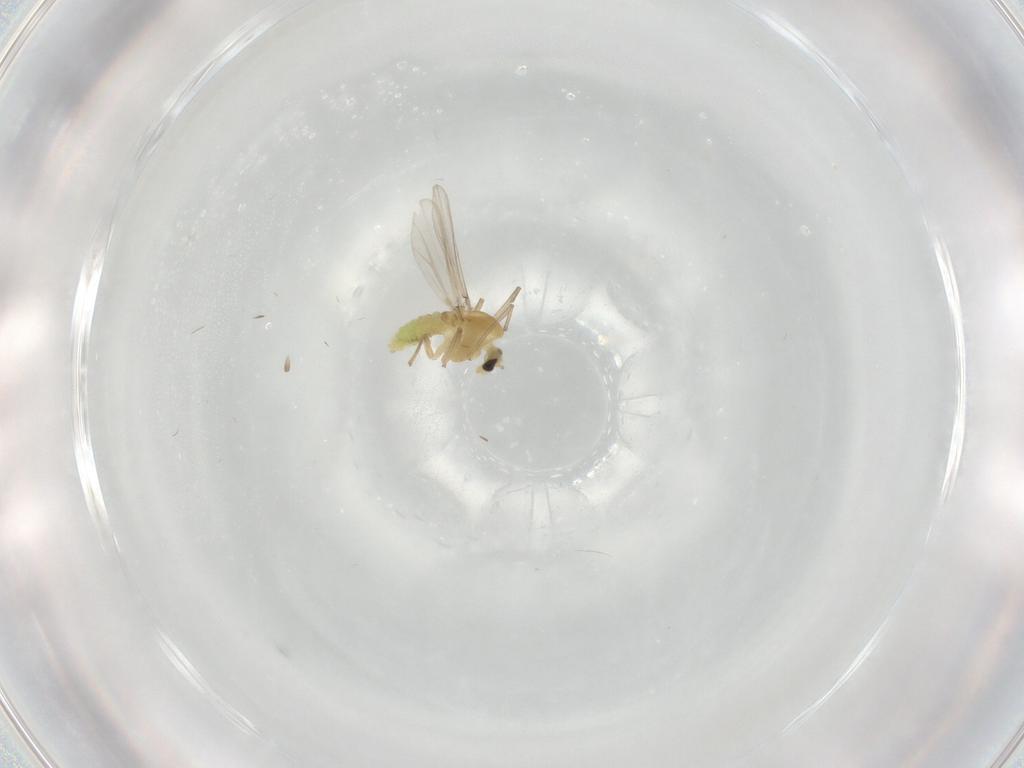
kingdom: Animalia
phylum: Arthropoda
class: Insecta
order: Diptera
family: Chironomidae
